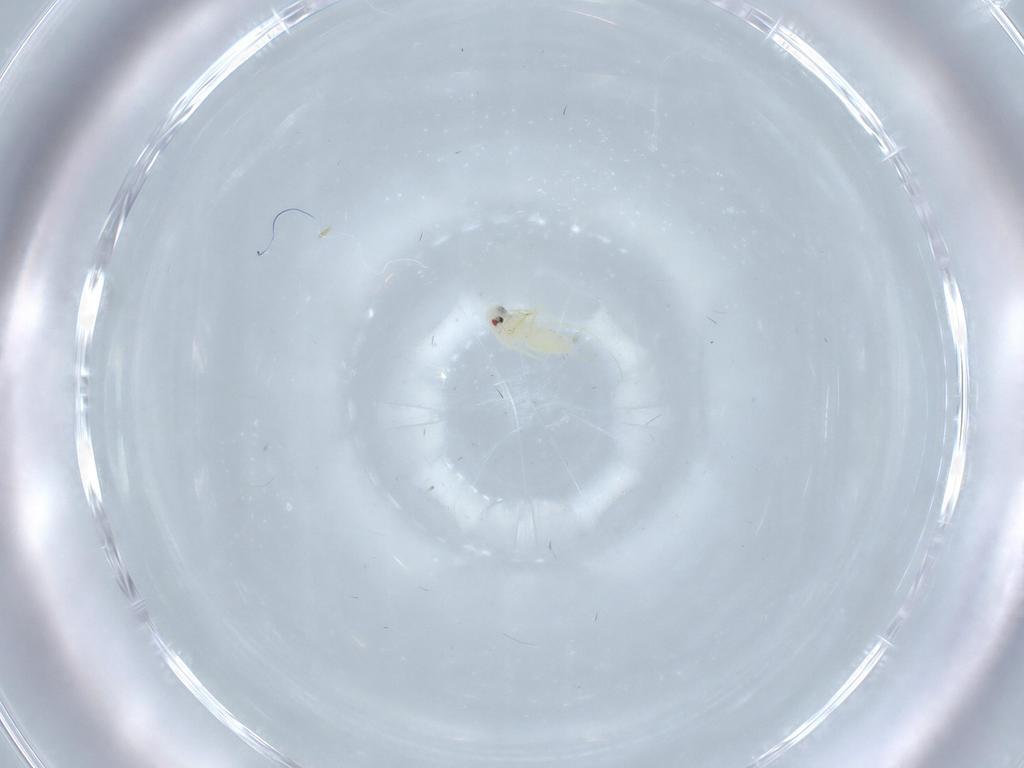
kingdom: Animalia
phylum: Arthropoda
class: Insecta
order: Hemiptera
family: Aleyrodidae
